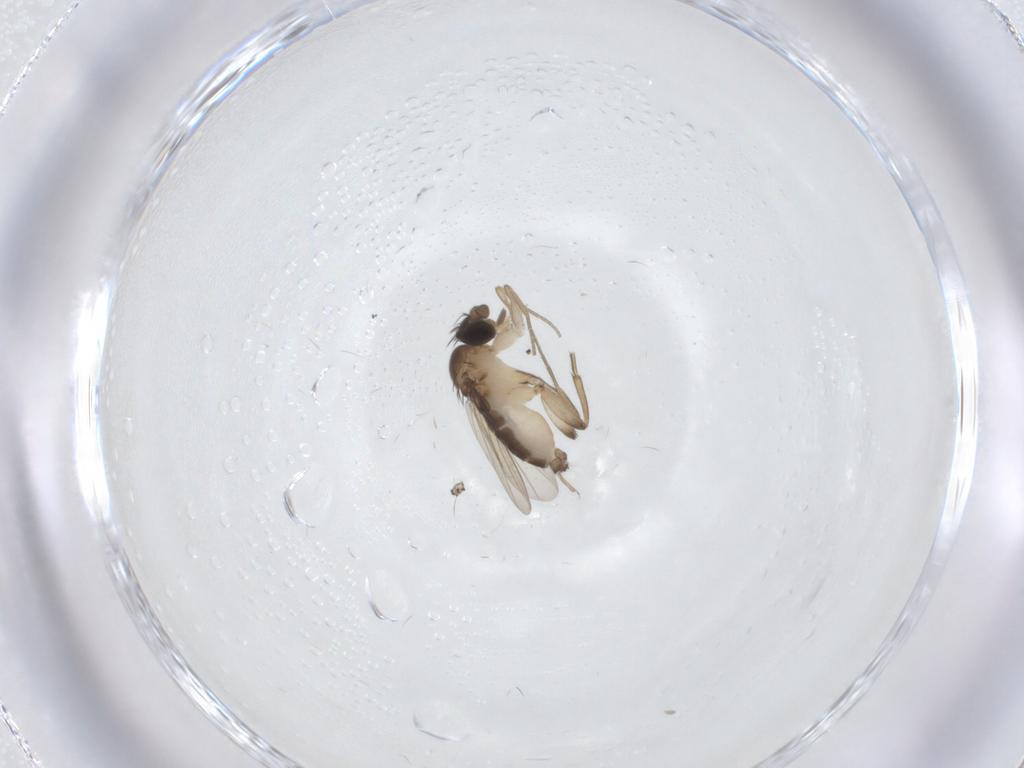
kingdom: Animalia
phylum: Arthropoda
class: Insecta
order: Diptera
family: Phoridae
